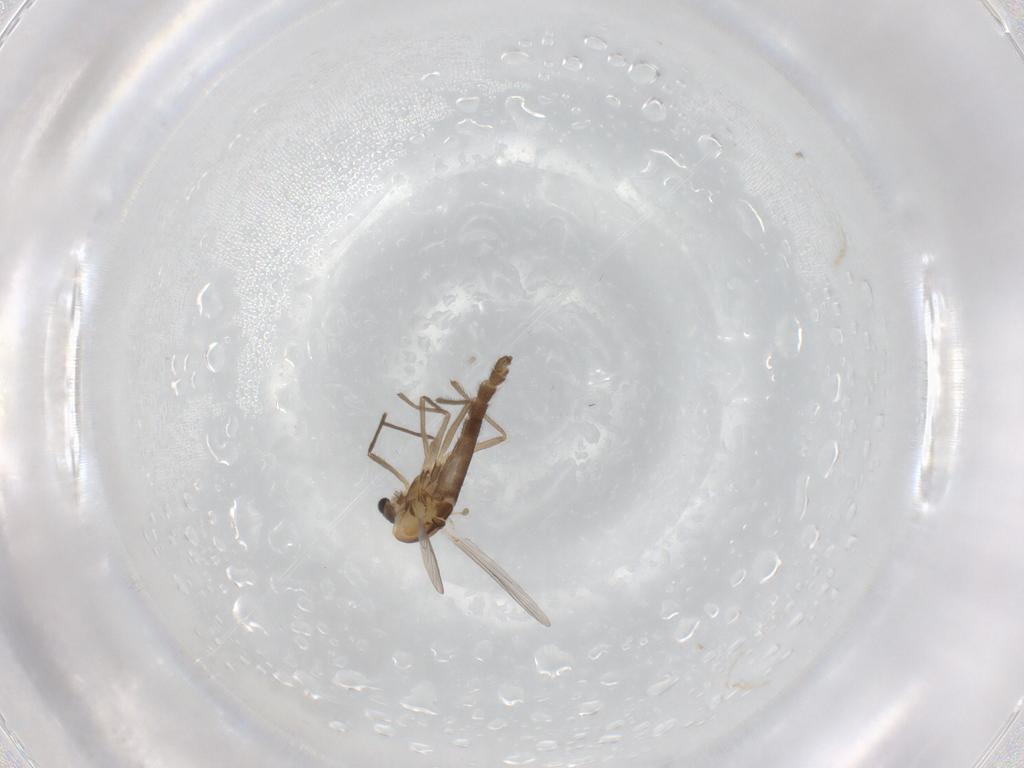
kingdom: Animalia
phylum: Arthropoda
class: Insecta
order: Diptera
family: Chironomidae
